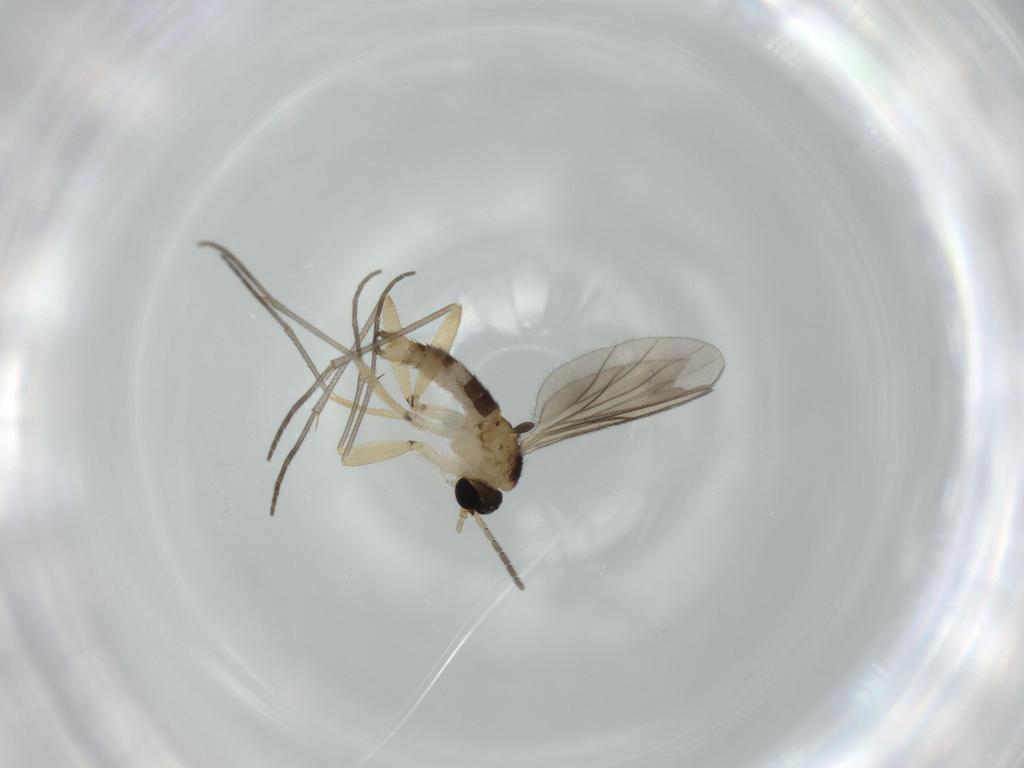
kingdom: Animalia
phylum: Arthropoda
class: Insecta
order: Diptera
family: Sciaridae
